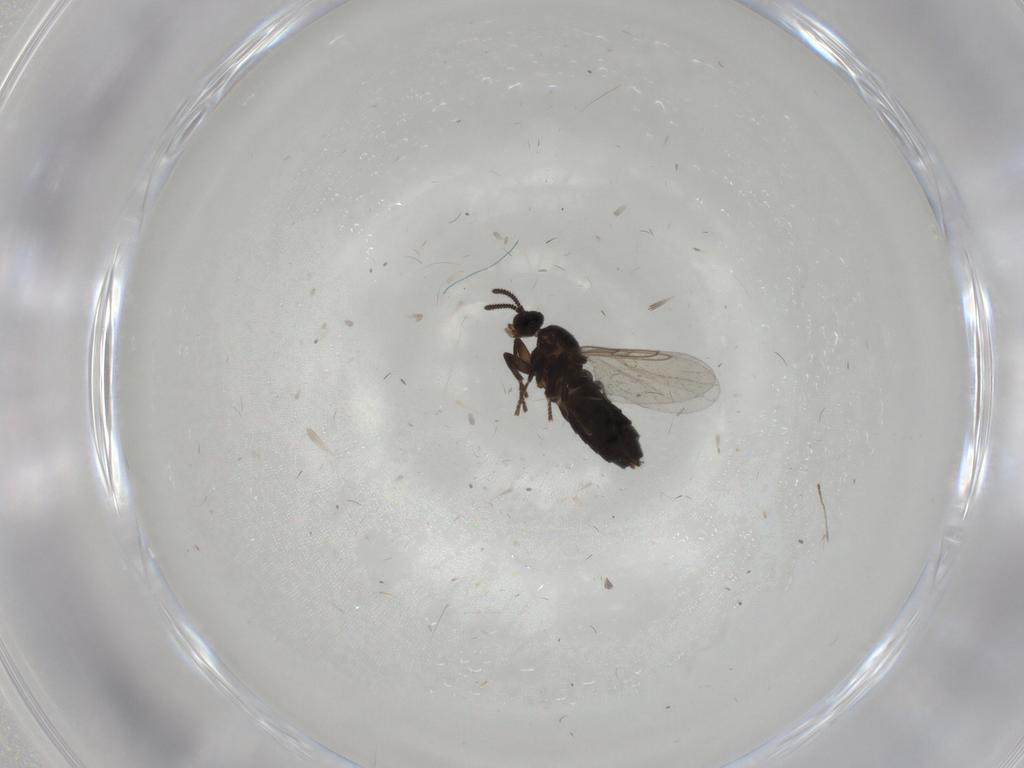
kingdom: Animalia
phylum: Arthropoda
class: Insecta
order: Diptera
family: Scatopsidae
